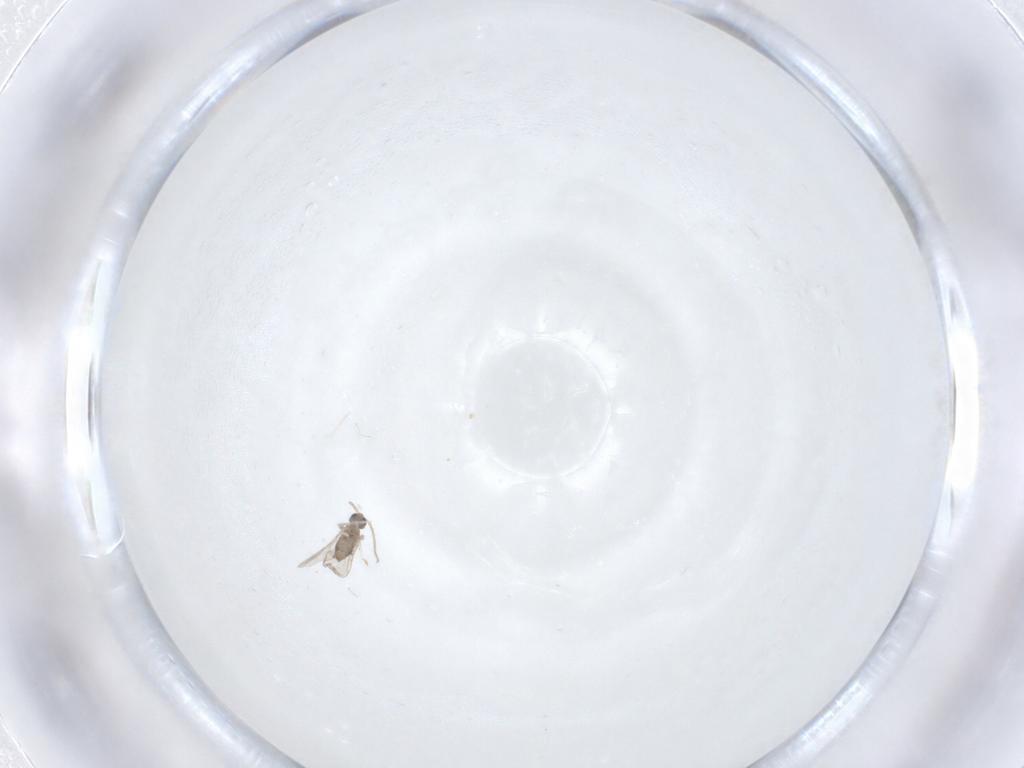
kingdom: Animalia
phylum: Arthropoda
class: Insecta
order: Diptera
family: Cecidomyiidae
